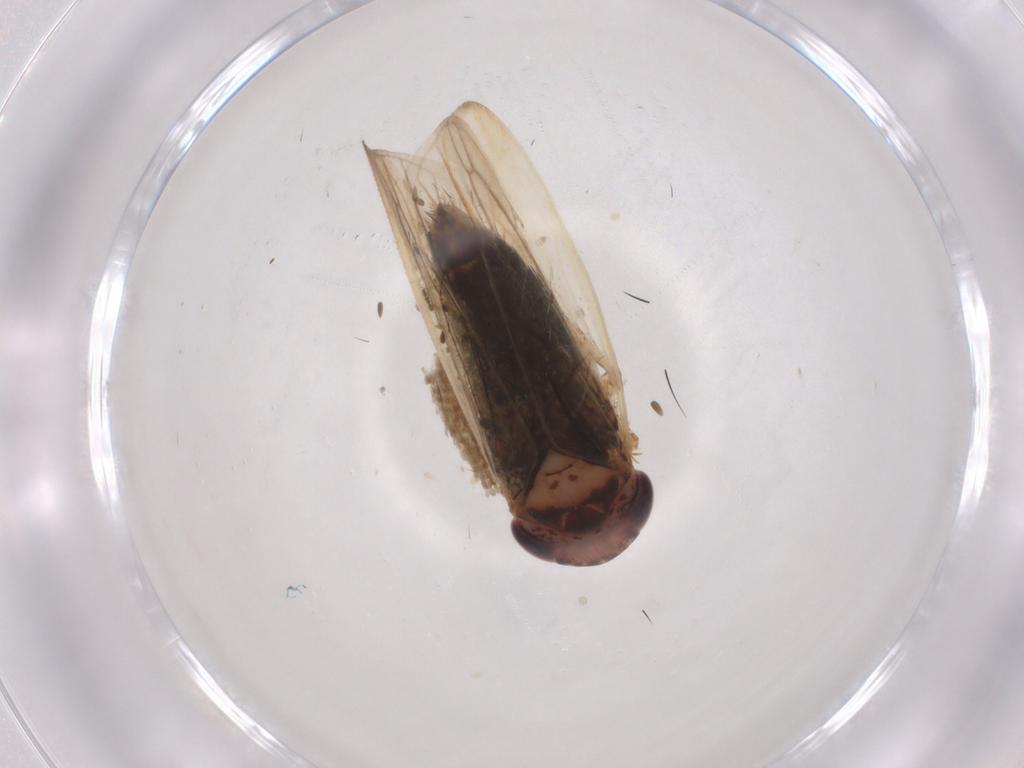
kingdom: Animalia
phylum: Arthropoda
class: Insecta
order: Hemiptera
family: Cicadellidae
